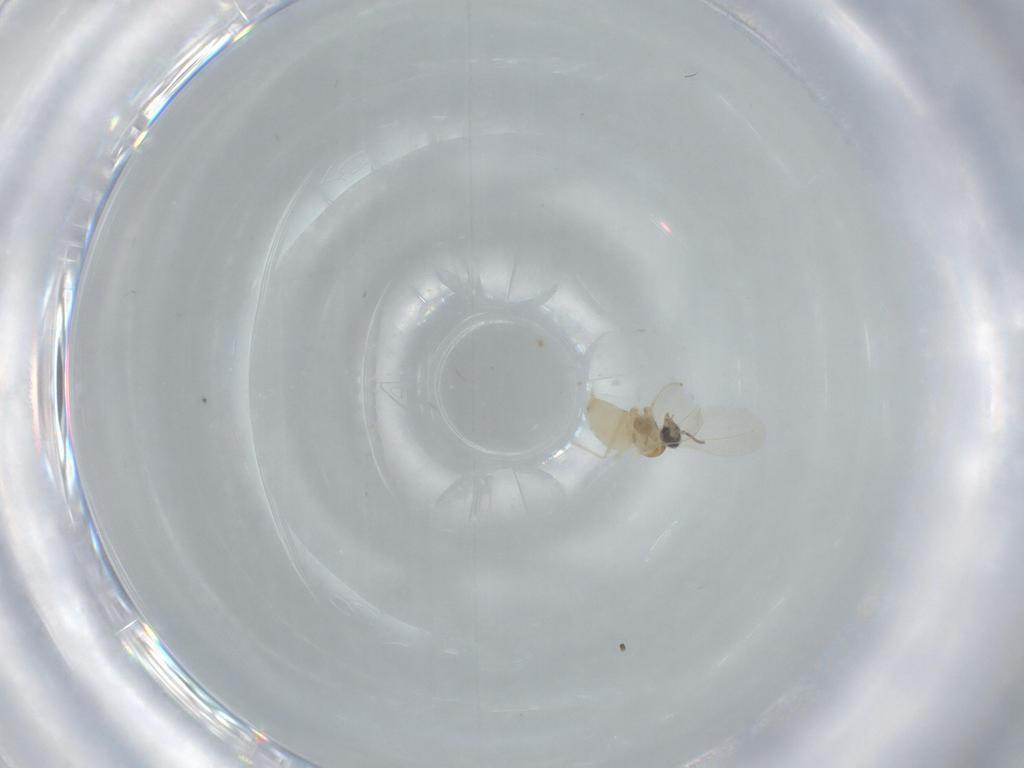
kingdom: Animalia
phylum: Arthropoda
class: Insecta
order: Diptera
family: Cecidomyiidae
